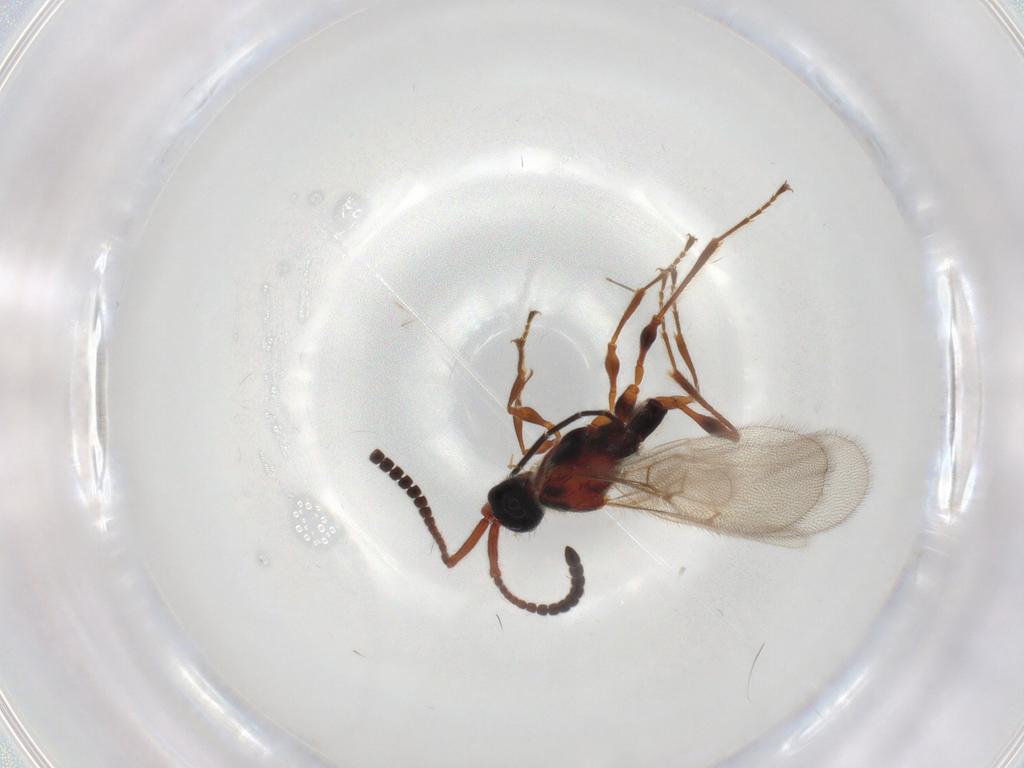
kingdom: Animalia
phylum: Arthropoda
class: Insecta
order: Hymenoptera
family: Diapriidae
